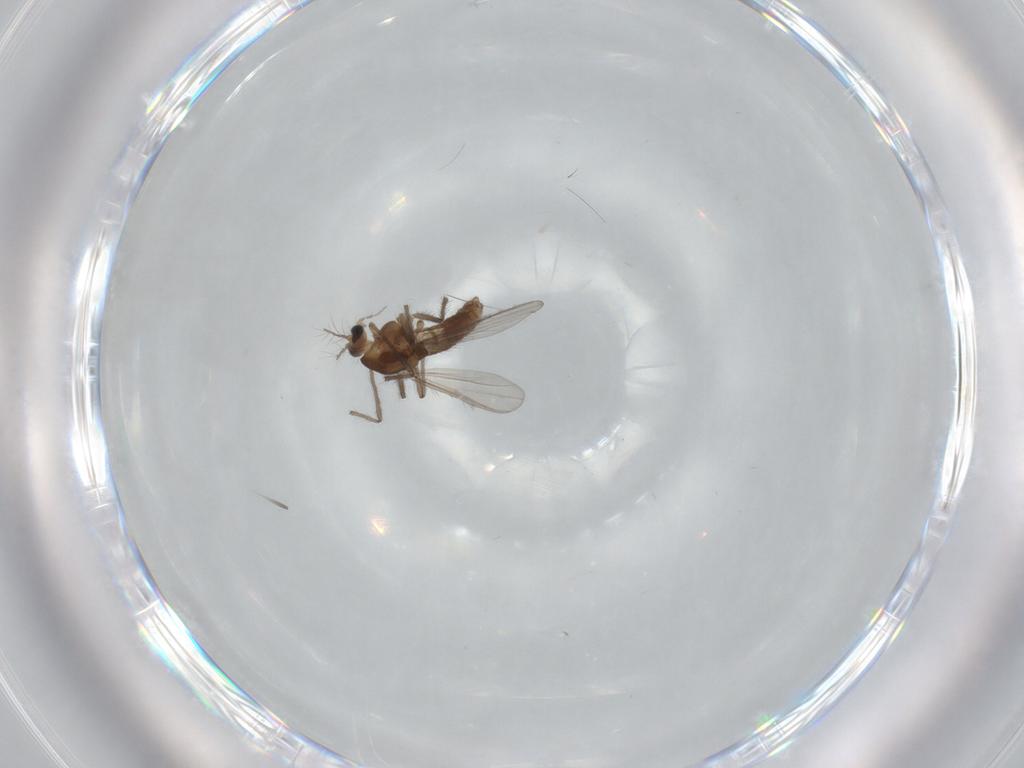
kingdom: Animalia
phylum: Arthropoda
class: Insecta
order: Diptera
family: Chironomidae
